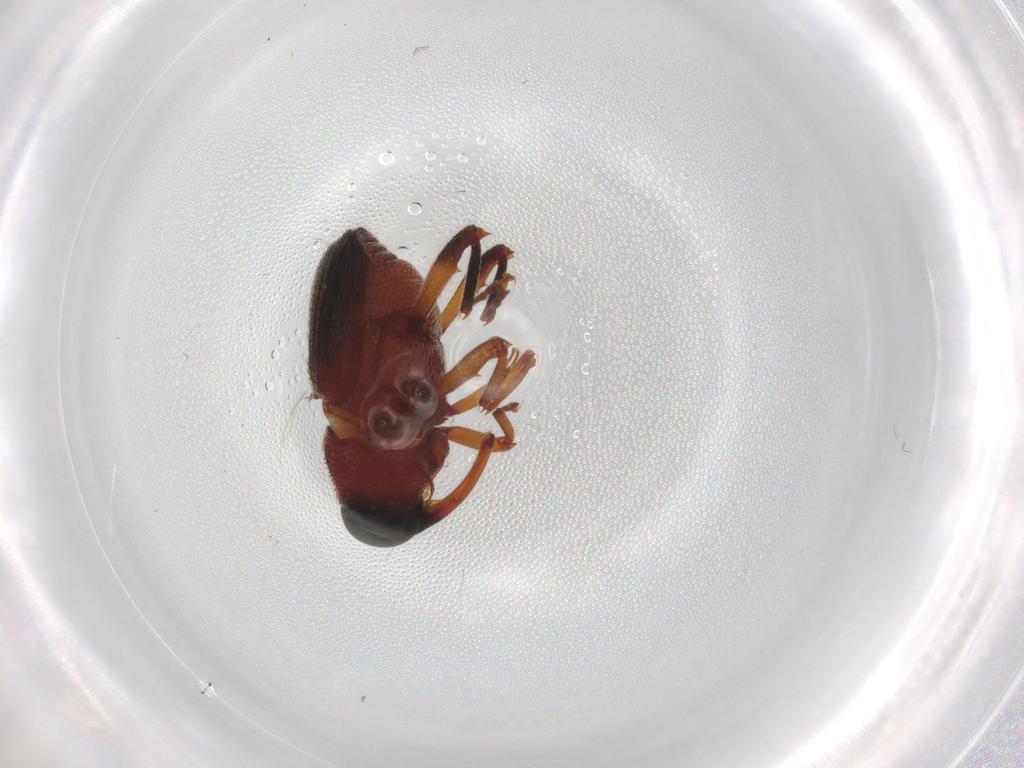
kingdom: Animalia
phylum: Arthropoda
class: Insecta
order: Coleoptera
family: Curculionidae
